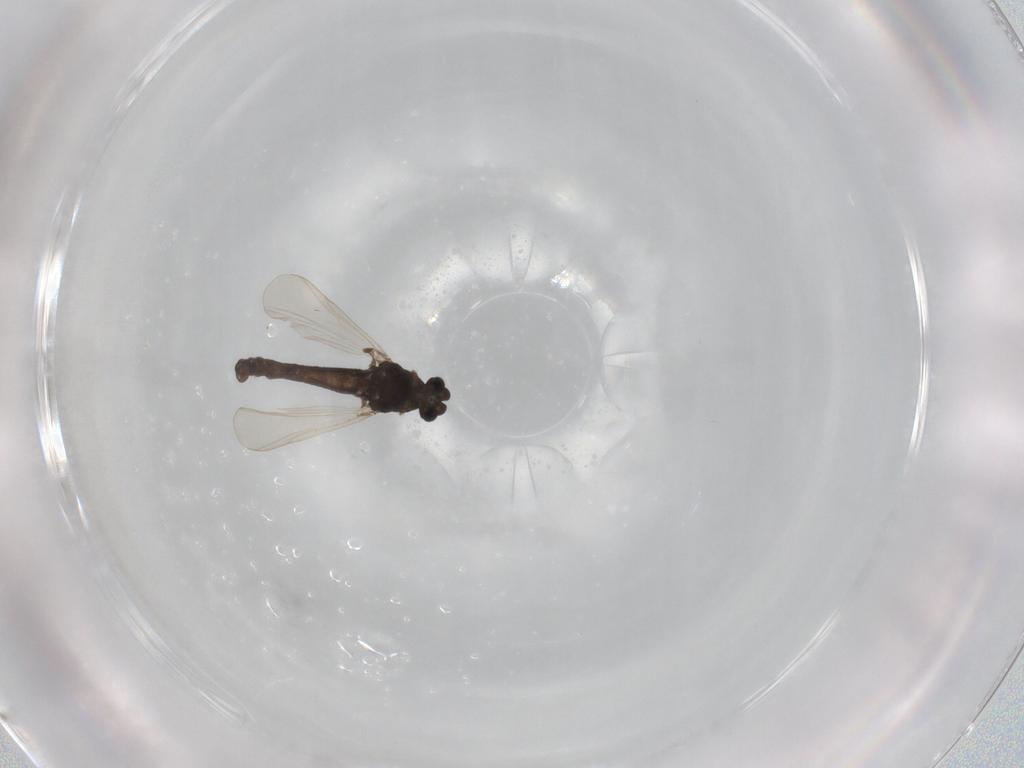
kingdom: Animalia
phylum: Arthropoda
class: Insecta
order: Diptera
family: Chironomidae
